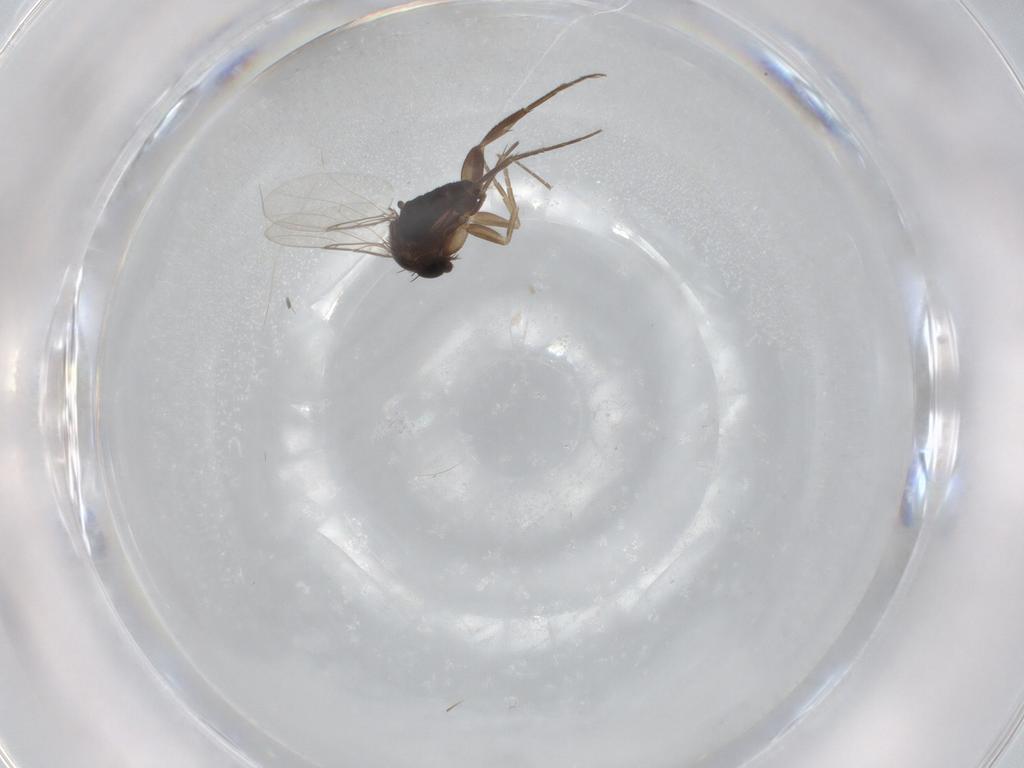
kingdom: Animalia
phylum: Arthropoda
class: Insecta
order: Diptera
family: Phoridae
